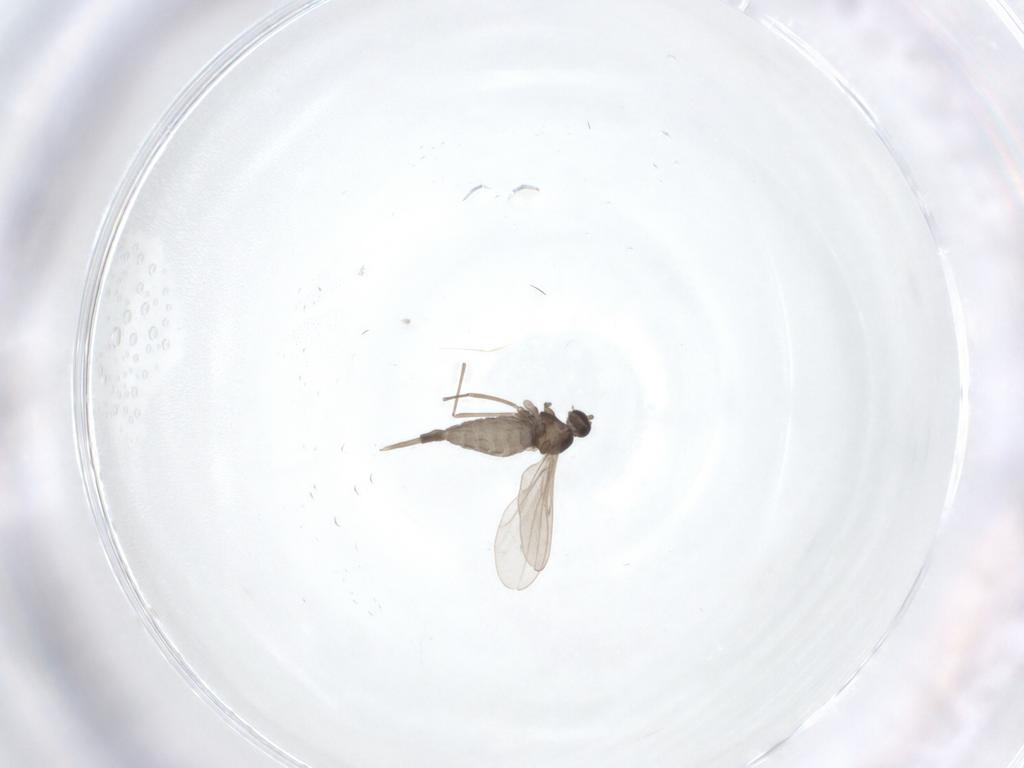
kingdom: Animalia
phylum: Arthropoda
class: Insecta
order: Diptera
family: Cecidomyiidae
